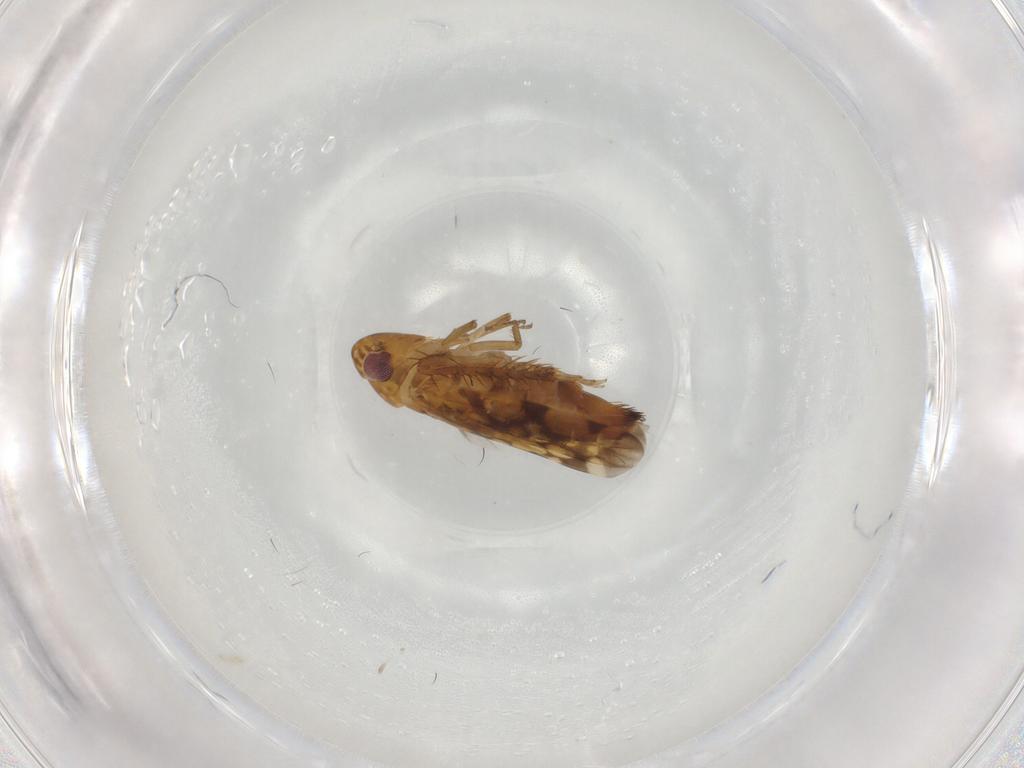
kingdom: Animalia
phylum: Arthropoda
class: Insecta
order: Hemiptera
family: Cicadellidae
